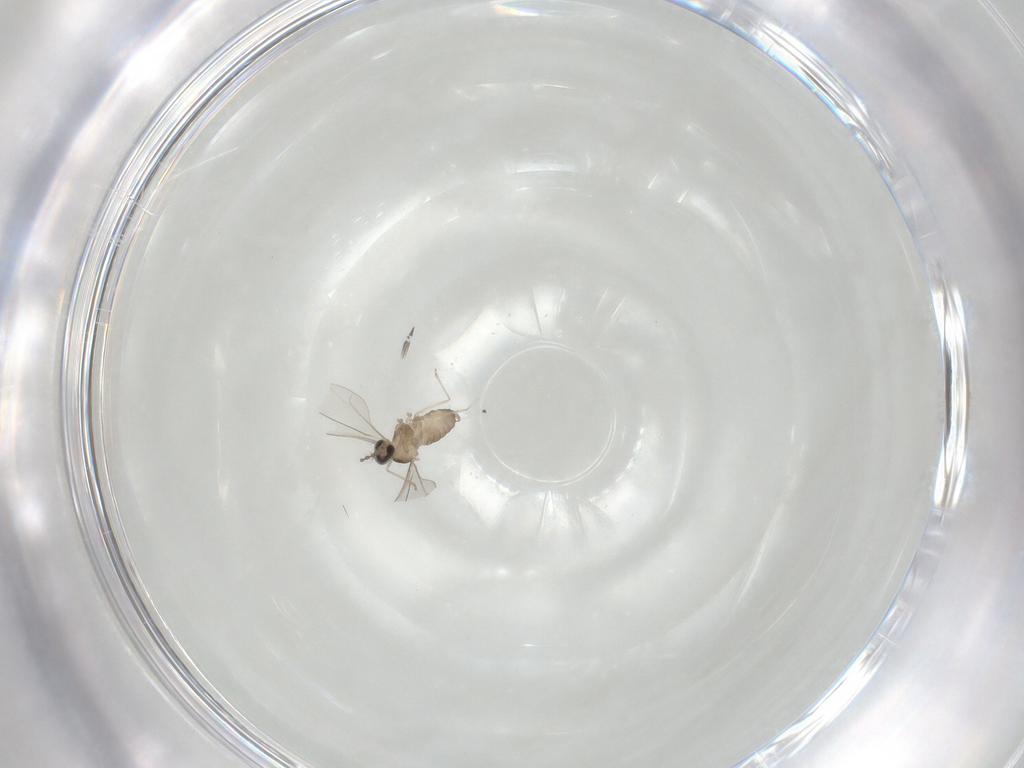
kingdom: Animalia
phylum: Arthropoda
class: Insecta
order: Diptera
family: Cecidomyiidae
